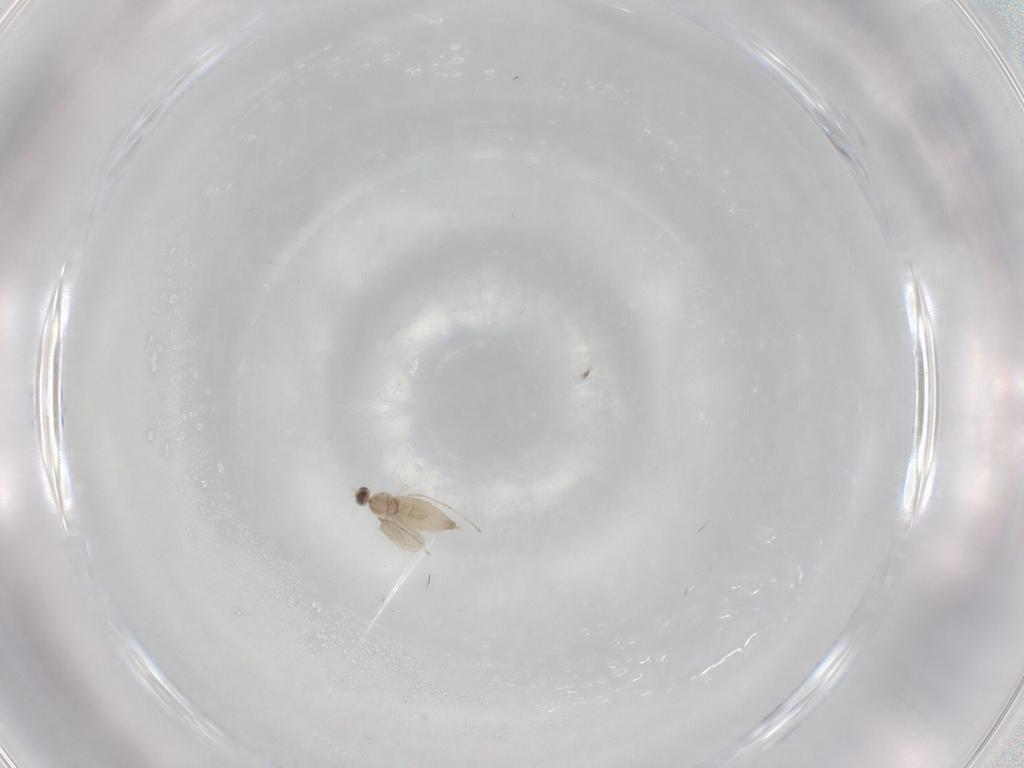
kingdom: Animalia
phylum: Arthropoda
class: Insecta
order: Diptera
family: Cecidomyiidae
